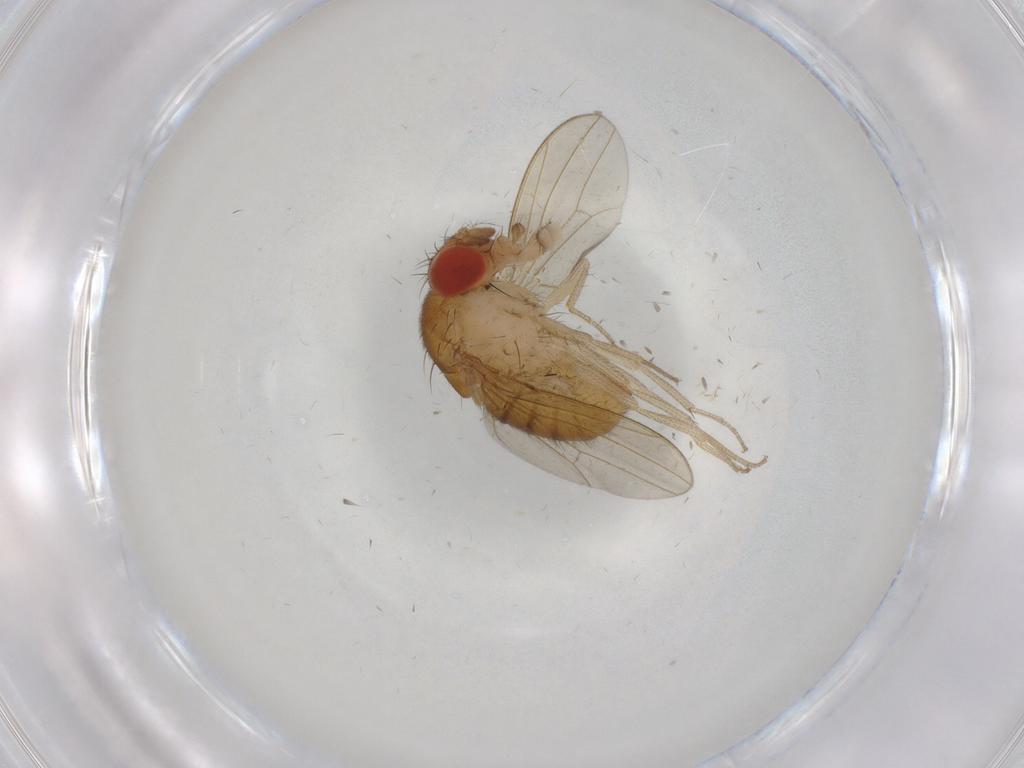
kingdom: Animalia
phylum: Arthropoda
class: Insecta
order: Diptera
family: Drosophilidae
